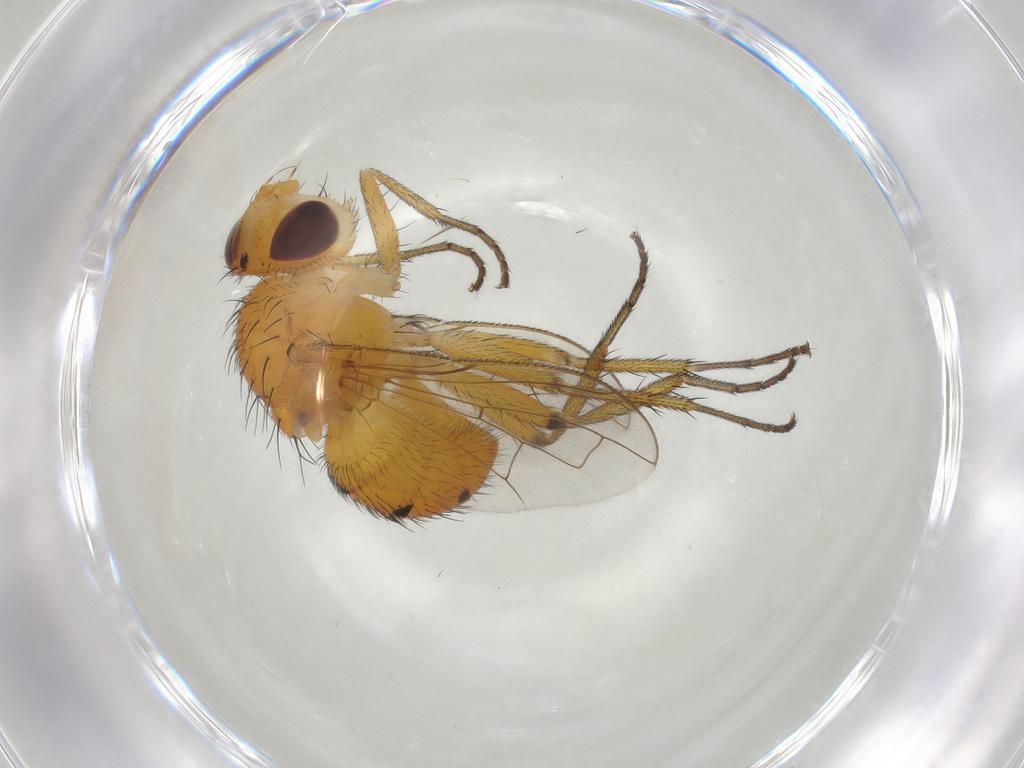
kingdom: Animalia
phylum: Arthropoda
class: Insecta
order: Diptera
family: Tachinidae
